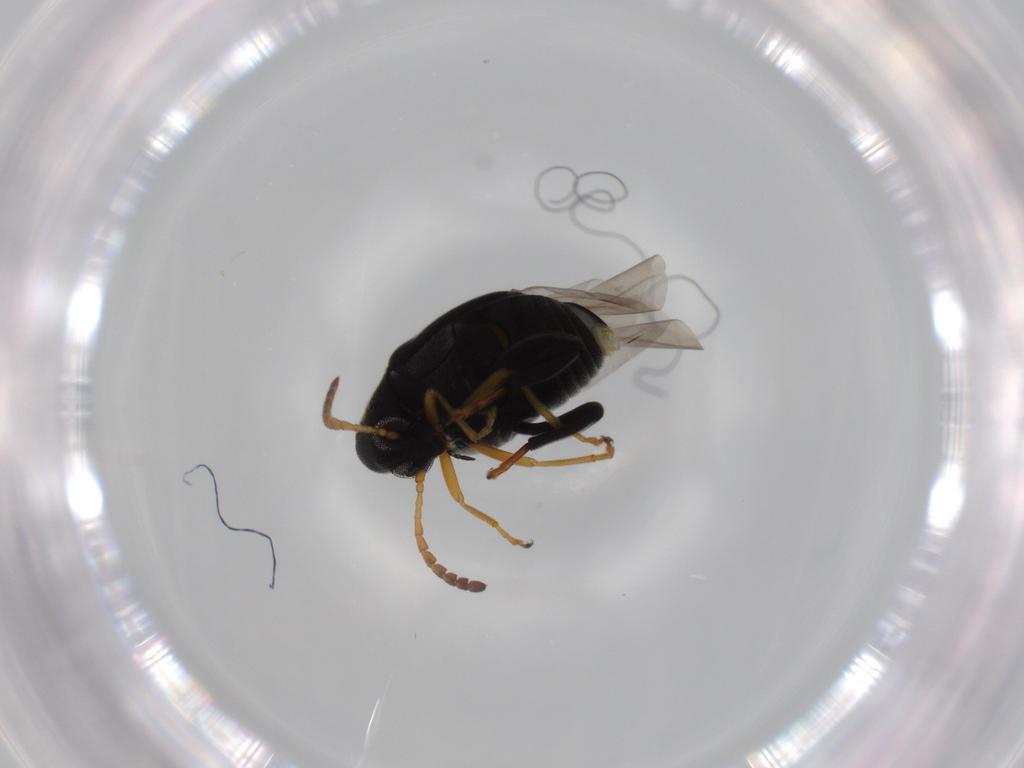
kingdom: Animalia
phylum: Arthropoda
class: Insecta
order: Coleoptera
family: Chrysomelidae
